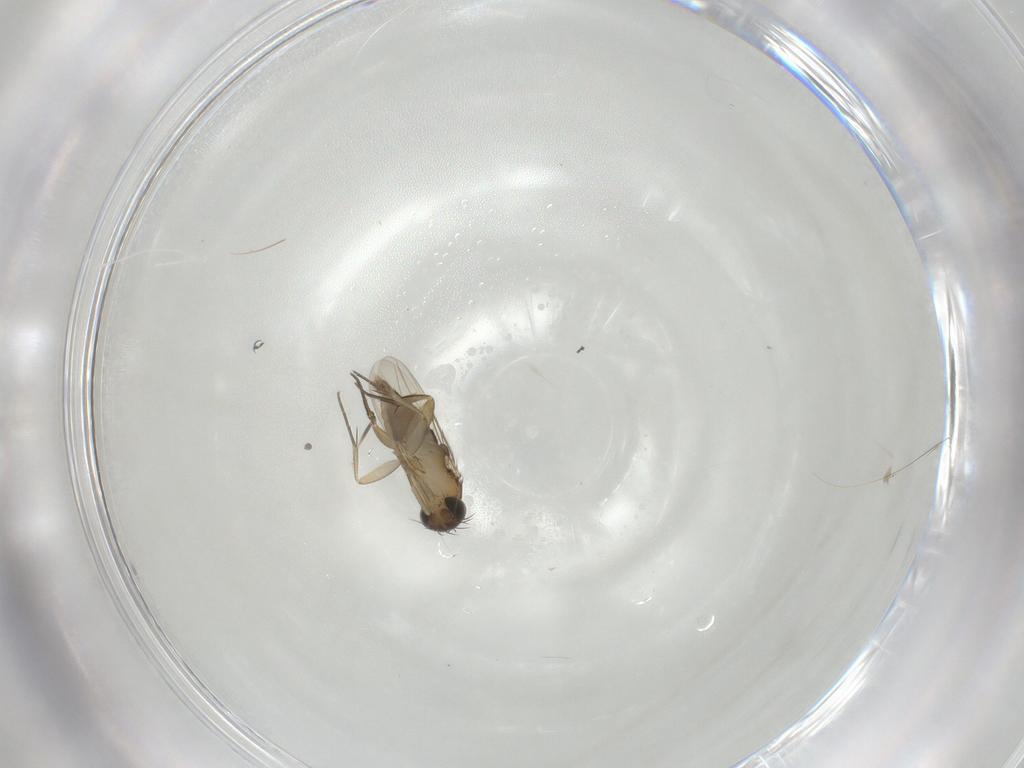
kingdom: Animalia
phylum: Arthropoda
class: Insecta
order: Diptera
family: Phoridae
